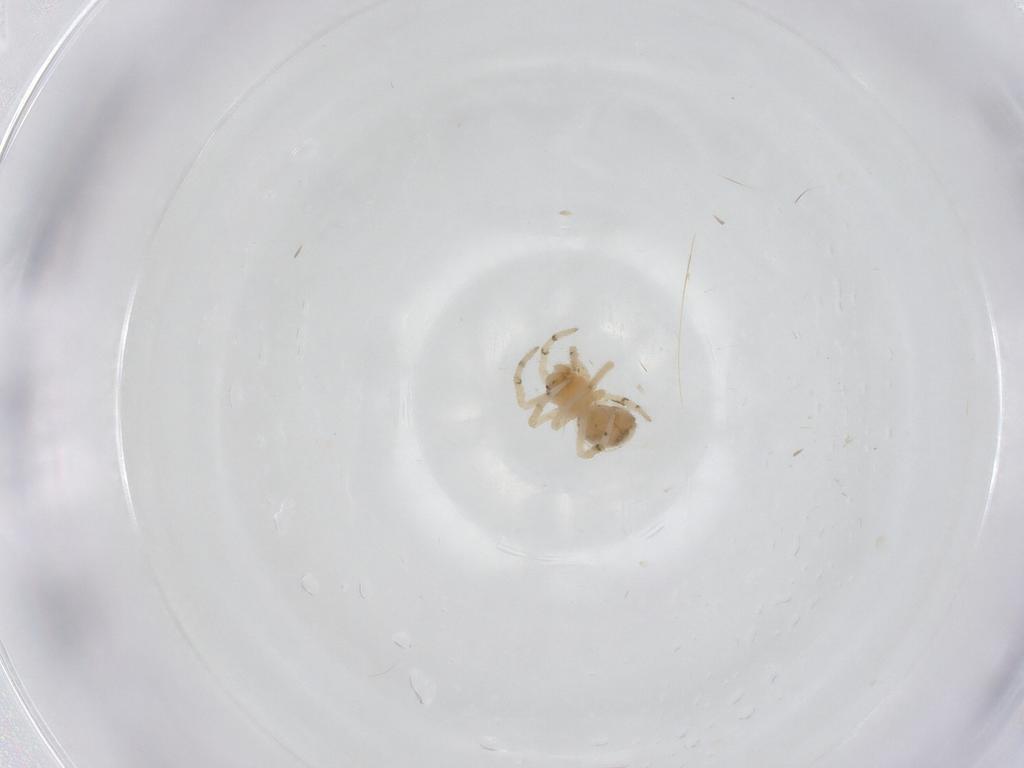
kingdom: Animalia
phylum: Arthropoda
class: Arachnida
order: Araneae
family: Theridiidae
